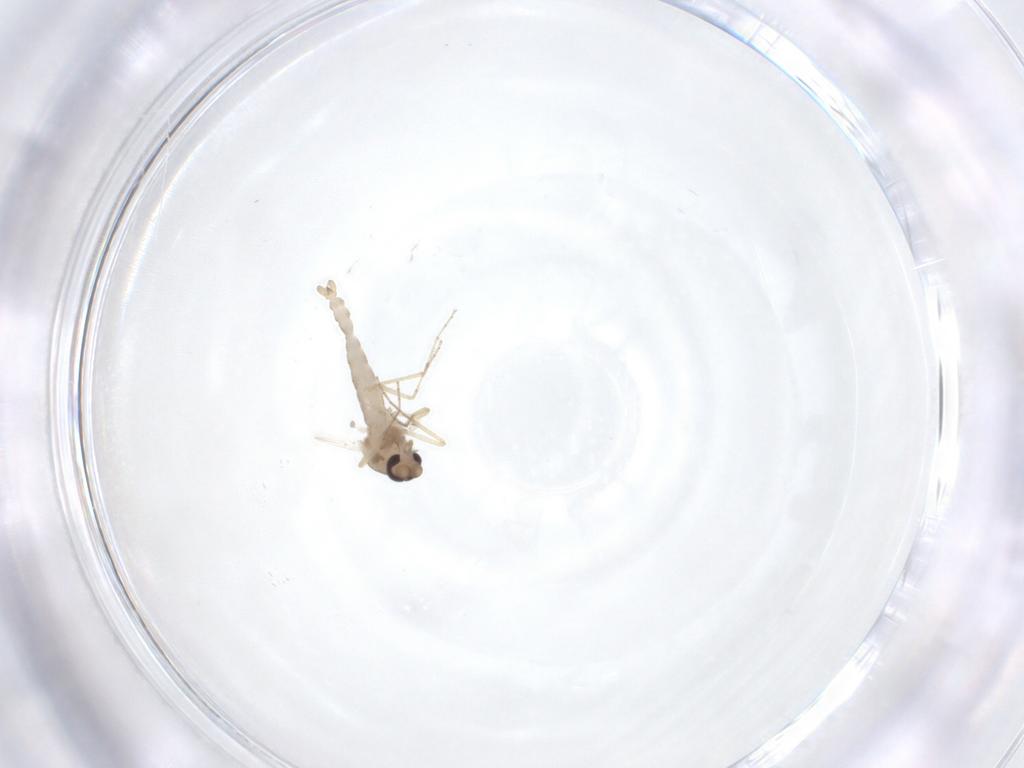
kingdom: Animalia
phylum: Arthropoda
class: Insecta
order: Diptera
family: Ceratopogonidae
